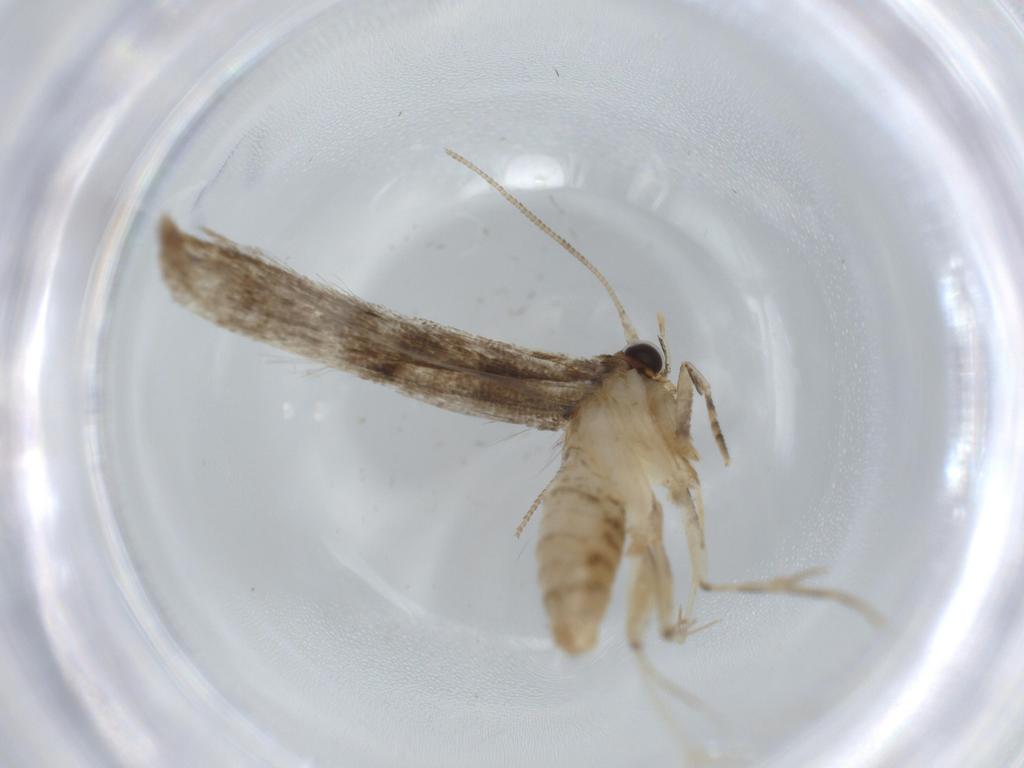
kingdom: Animalia
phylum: Arthropoda
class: Insecta
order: Lepidoptera
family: Tineidae
